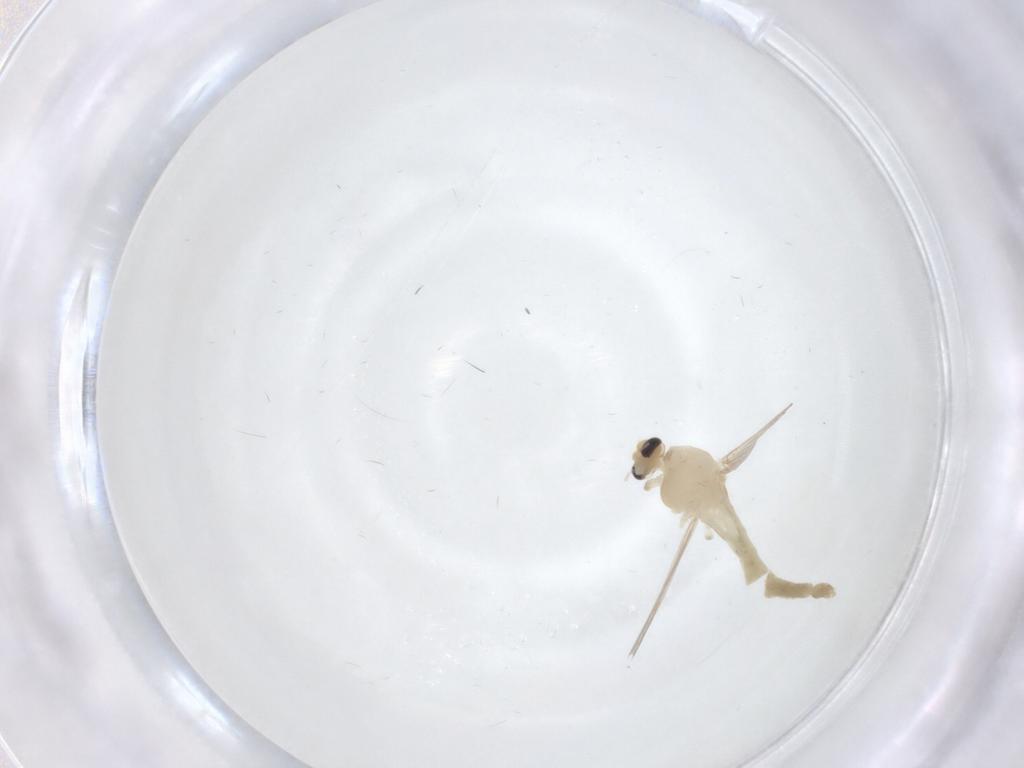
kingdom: Animalia
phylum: Arthropoda
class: Insecta
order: Diptera
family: Chironomidae
